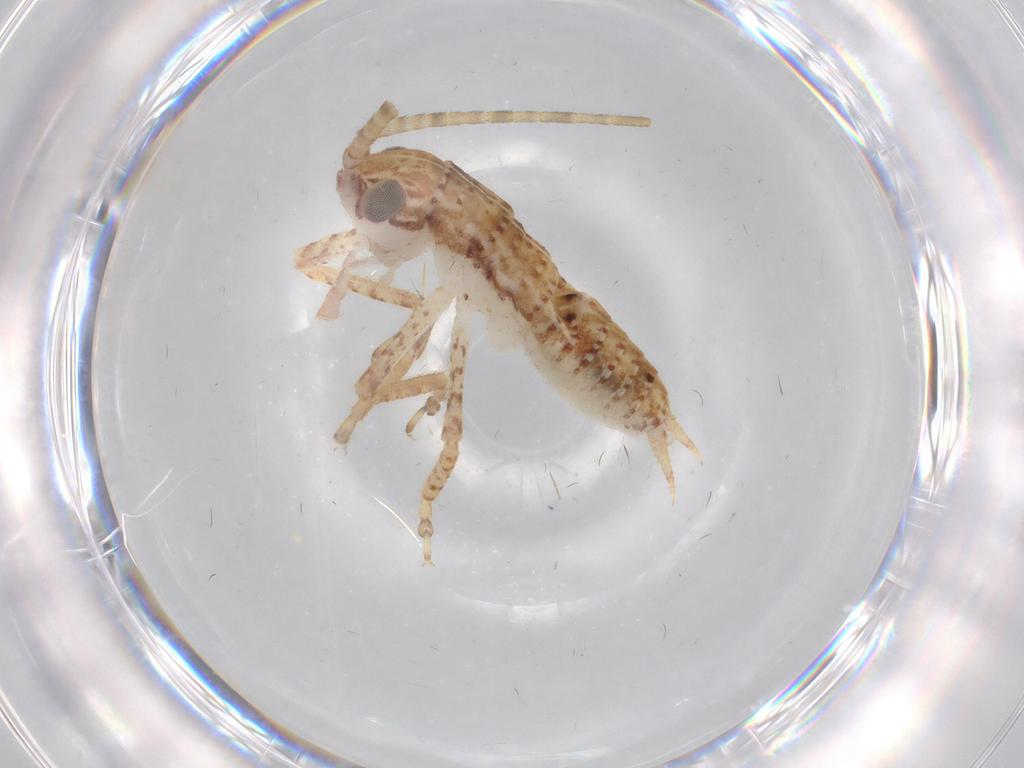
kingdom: Animalia
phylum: Arthropoda
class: Insecta
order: Orthoptera
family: Gryllidae
